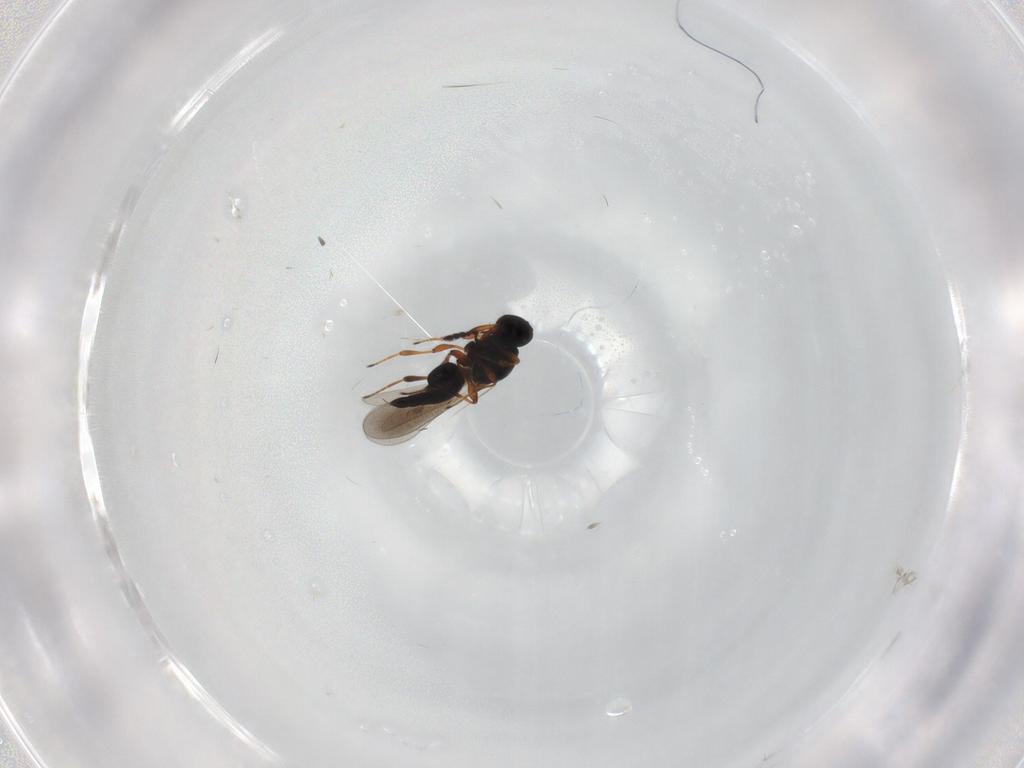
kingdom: Animalia
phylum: Arthropoda
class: Insecta
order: Hymenoptera
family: Platygastridae
